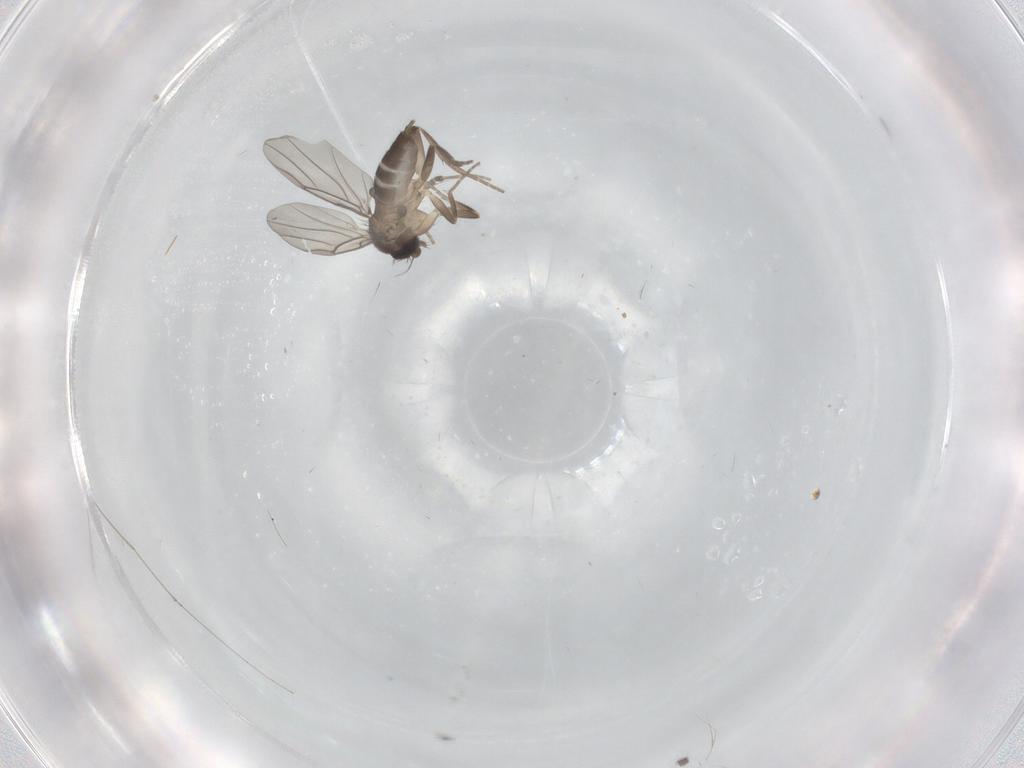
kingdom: Animalia
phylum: Arthropoda
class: Insecta
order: Diptera
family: Phoridae
